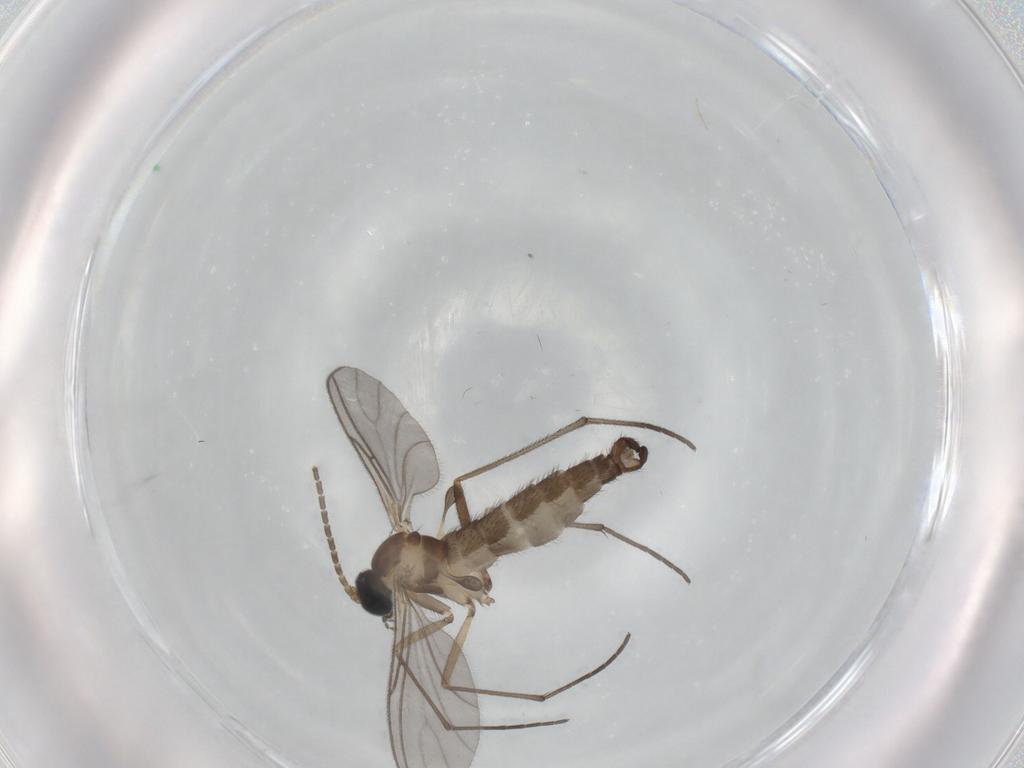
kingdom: Animalia
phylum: Arthropoda
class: Insecta
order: Diptera
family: Sciaridae
